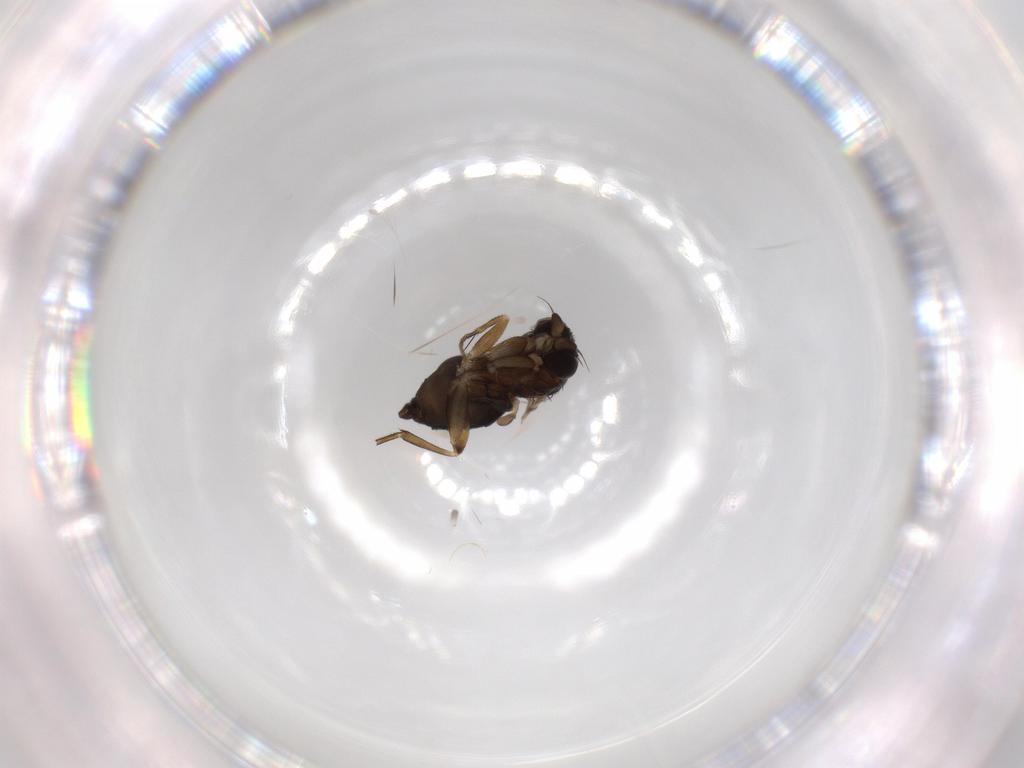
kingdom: Animalia
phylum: Arthropoda
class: Insecta
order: Diptera
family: Phoridae
